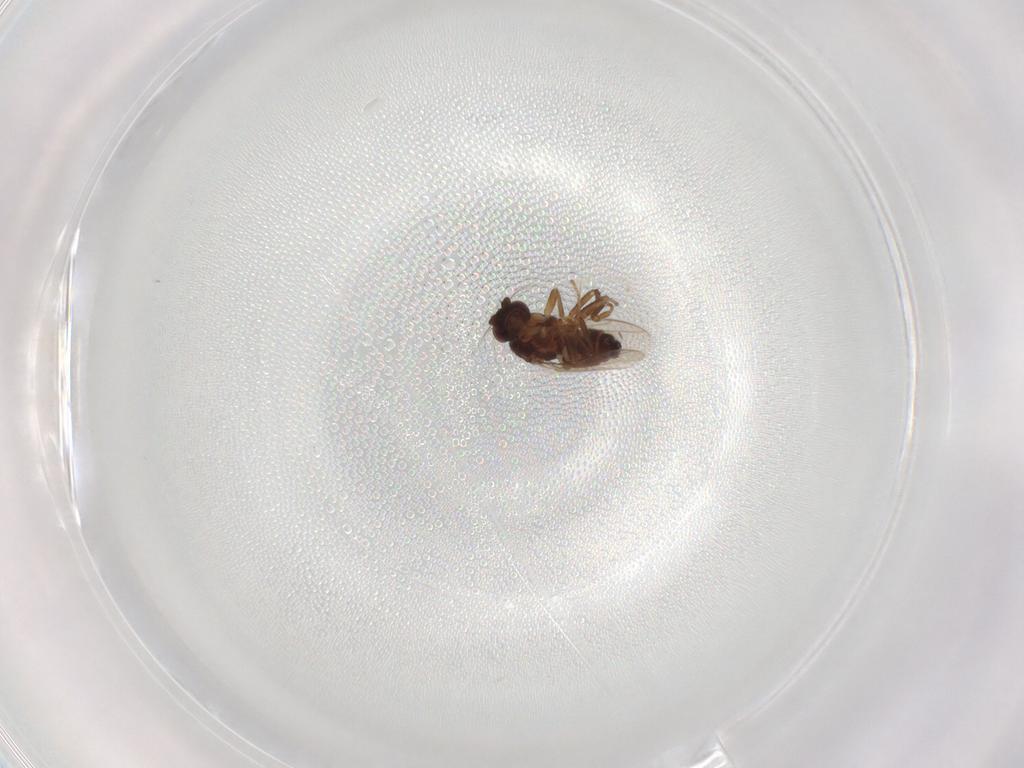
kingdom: Animalia
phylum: Arthropoda
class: Insecta
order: Diptera
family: Sphaeroceridae
